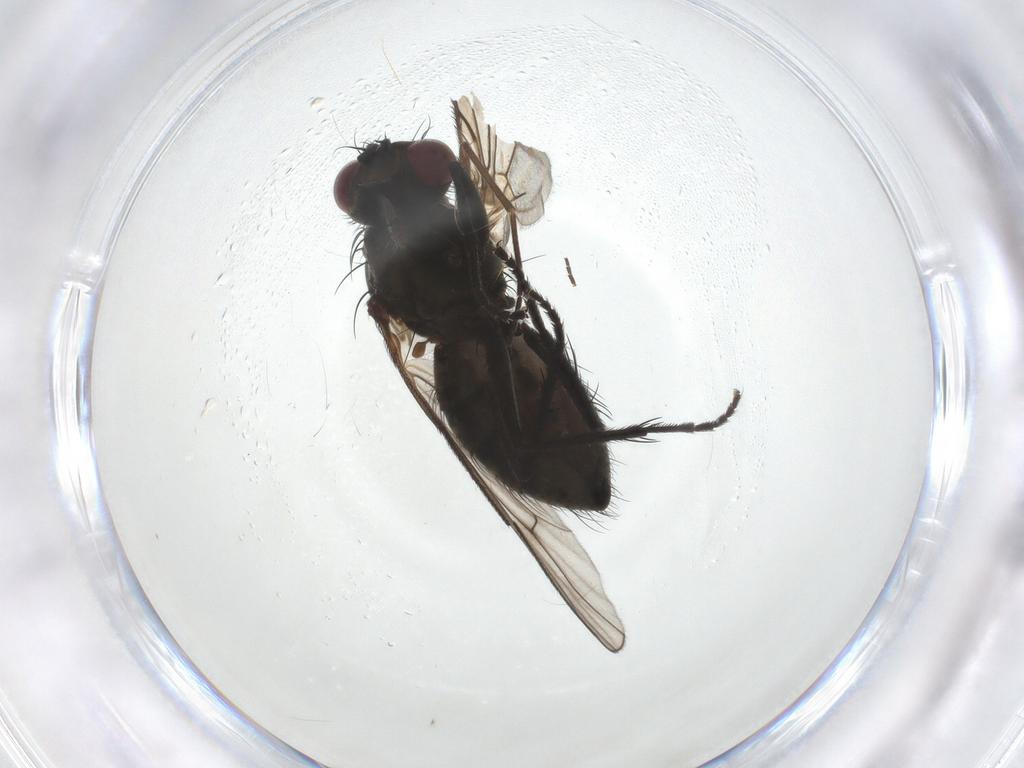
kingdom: Animalia
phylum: Arthropoda
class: Insecta
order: Diptera
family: Muscidae
